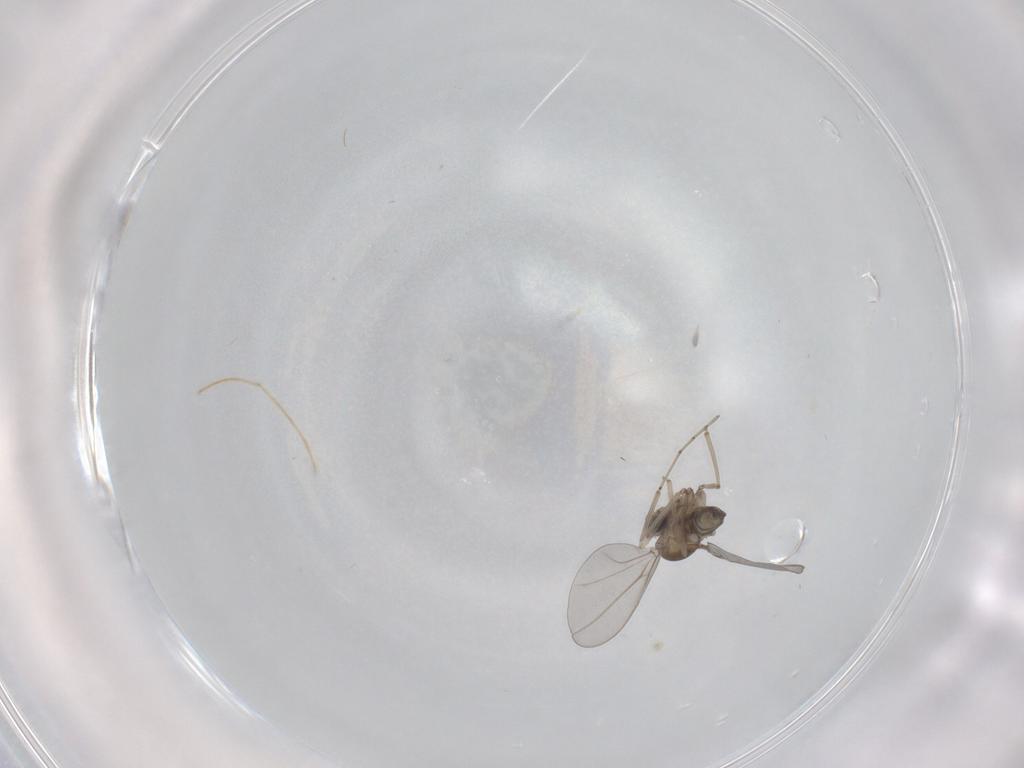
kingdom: Animalia
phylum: Arthropoda
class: Insecta
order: Diptera
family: Cecidomyiidae
